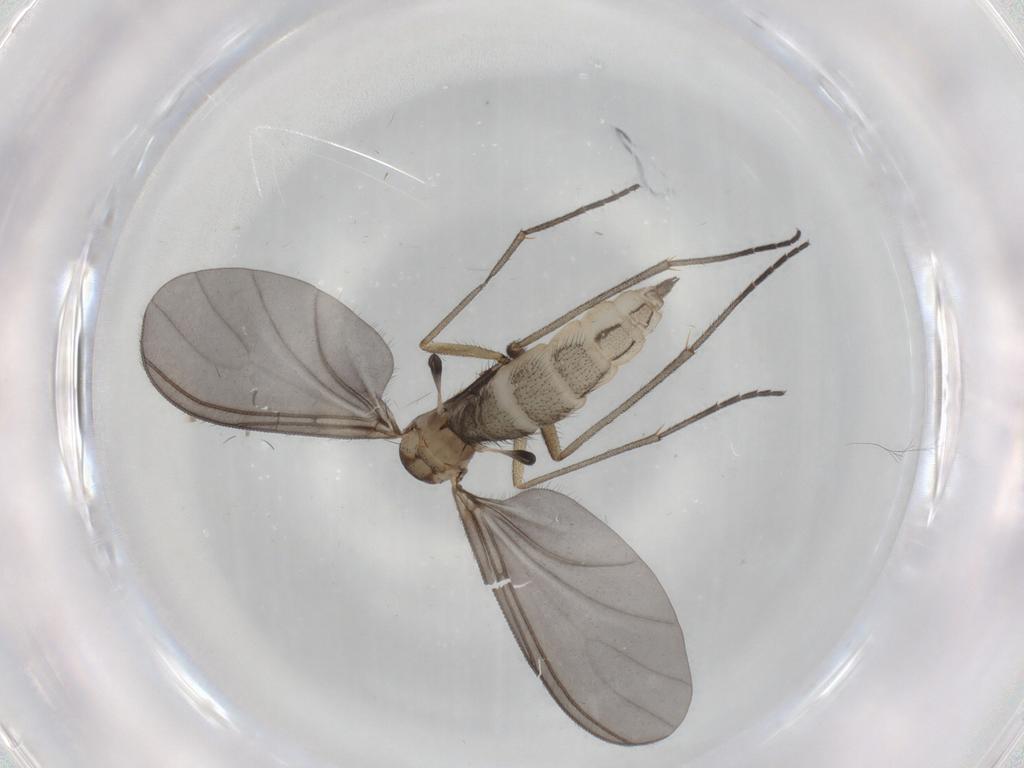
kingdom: Animalia
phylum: Arthropoda
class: Insecta
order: Diptera
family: Sciaridae
